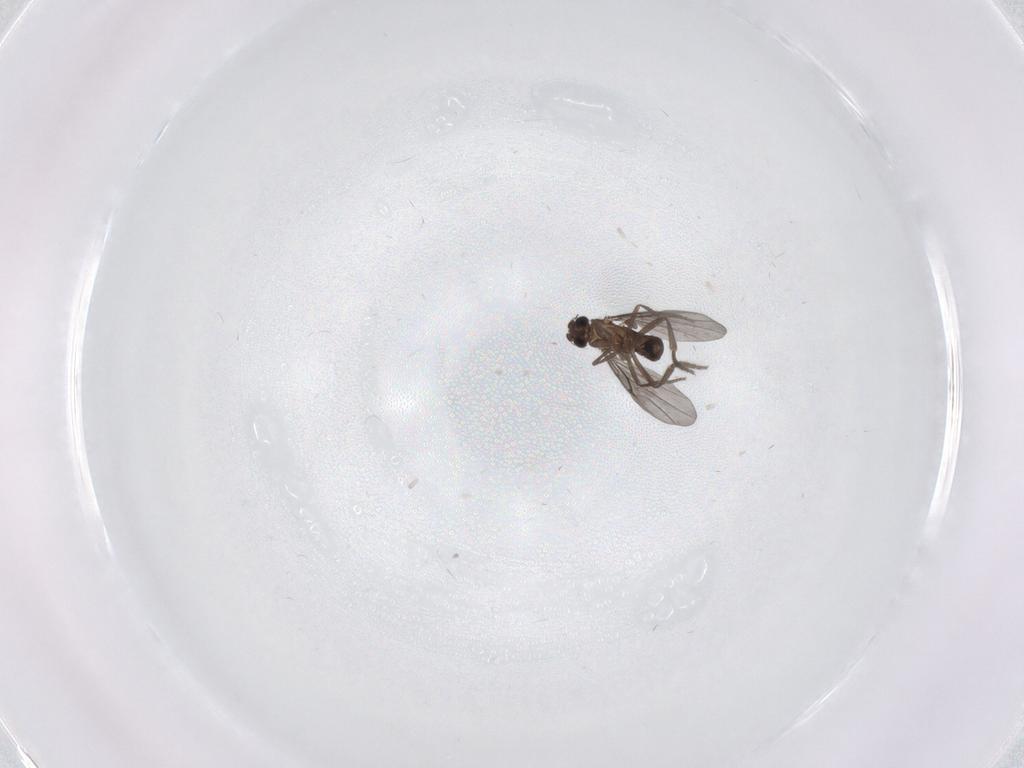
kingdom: Animalia
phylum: Arthropoda
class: Insecta
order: Diptera
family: Phoridae
